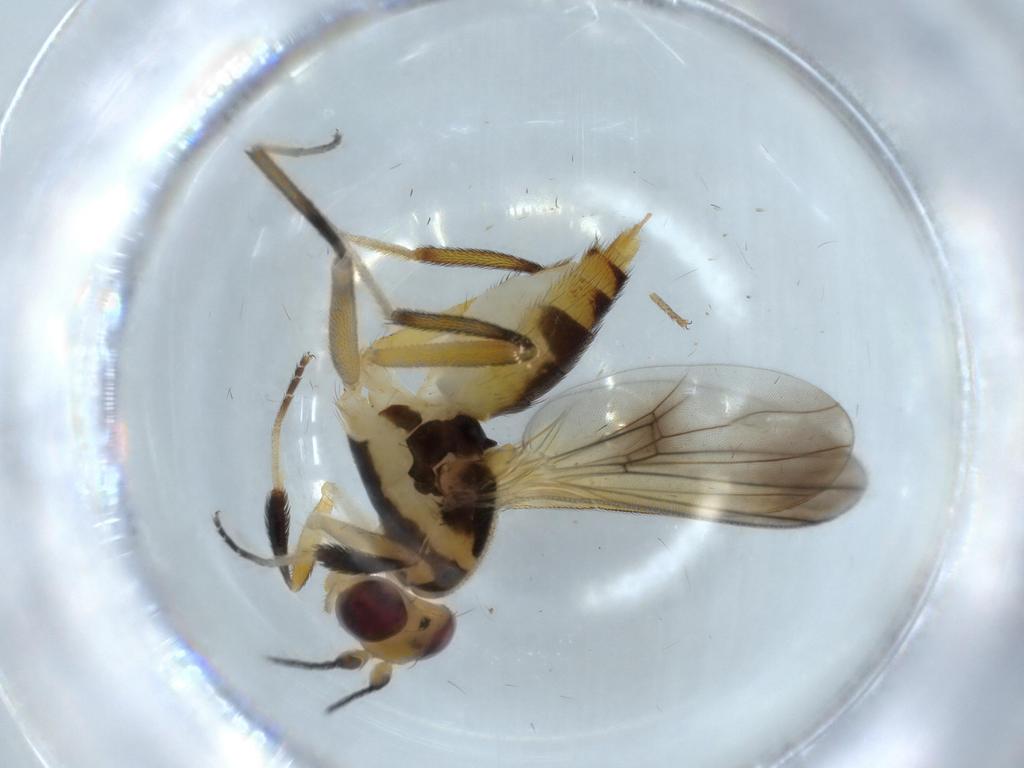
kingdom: Animalia
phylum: Arthropoda
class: Insecta
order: Diptera
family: Clusiidae
